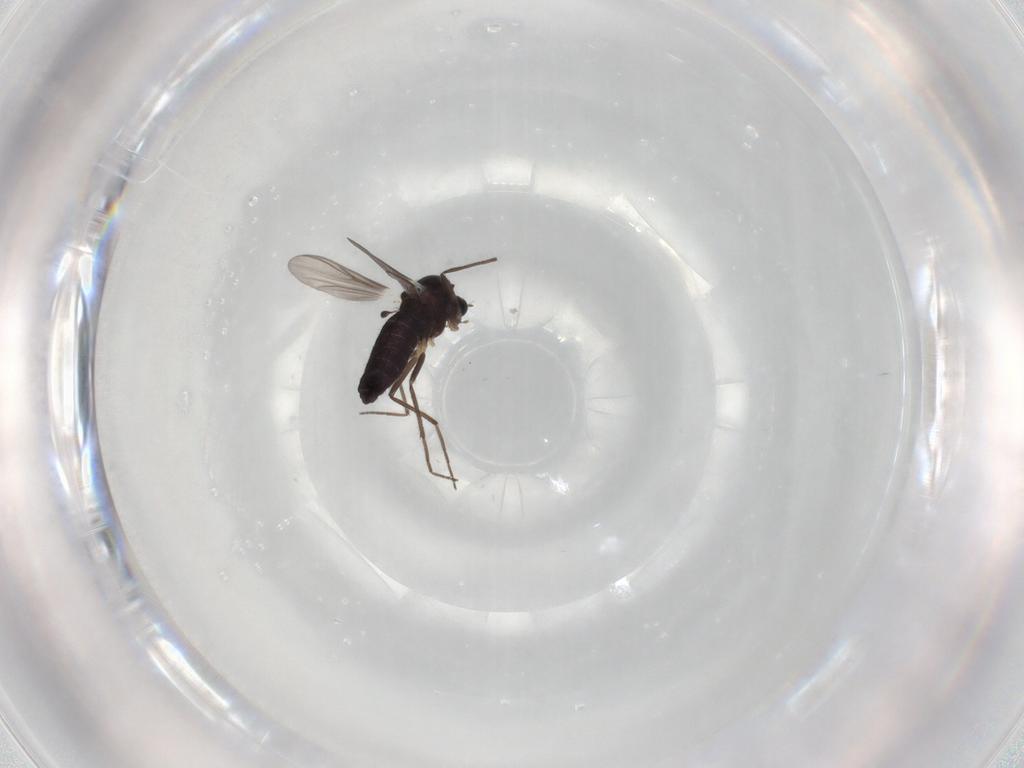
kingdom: Animalia
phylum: Arthropoda
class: Insecta
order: Diptera
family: Chironomidae
